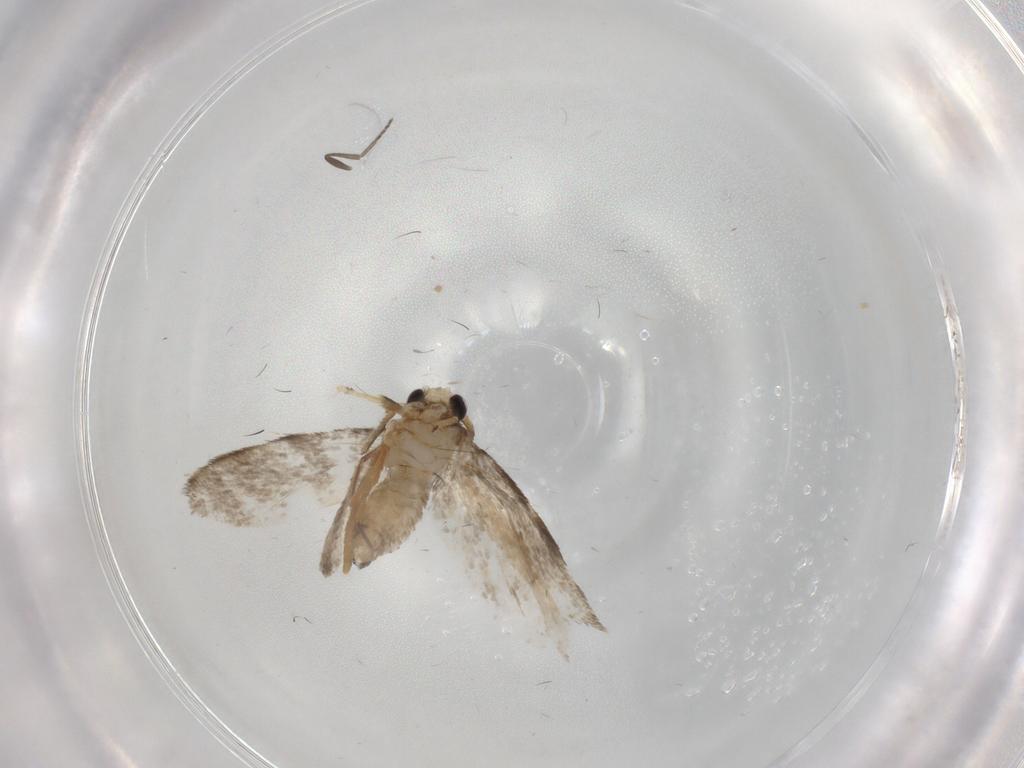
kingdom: Animalia
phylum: Arthropoda
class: Insecta
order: Lepidoptera
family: Psychidae
